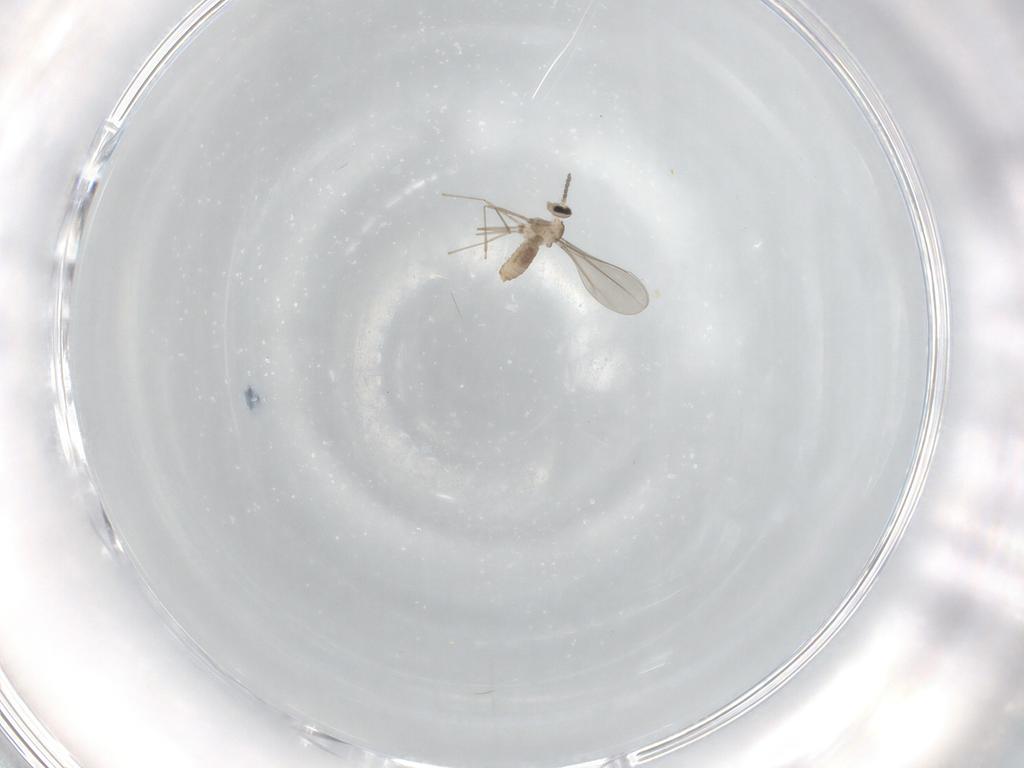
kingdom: Animalia
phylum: Arthropoda
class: Insecta
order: Diptera
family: Cecidomyiidae
